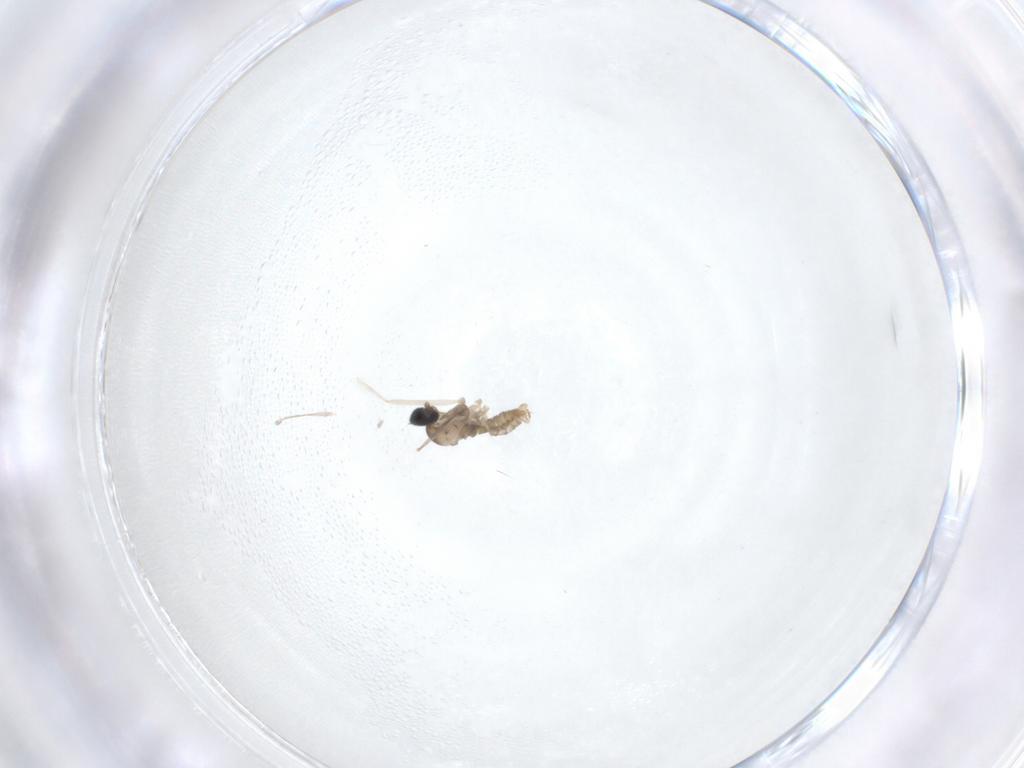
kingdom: Animalia
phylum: Arthropoda
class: Insecta
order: Diptera
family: Cecidomyiidae
